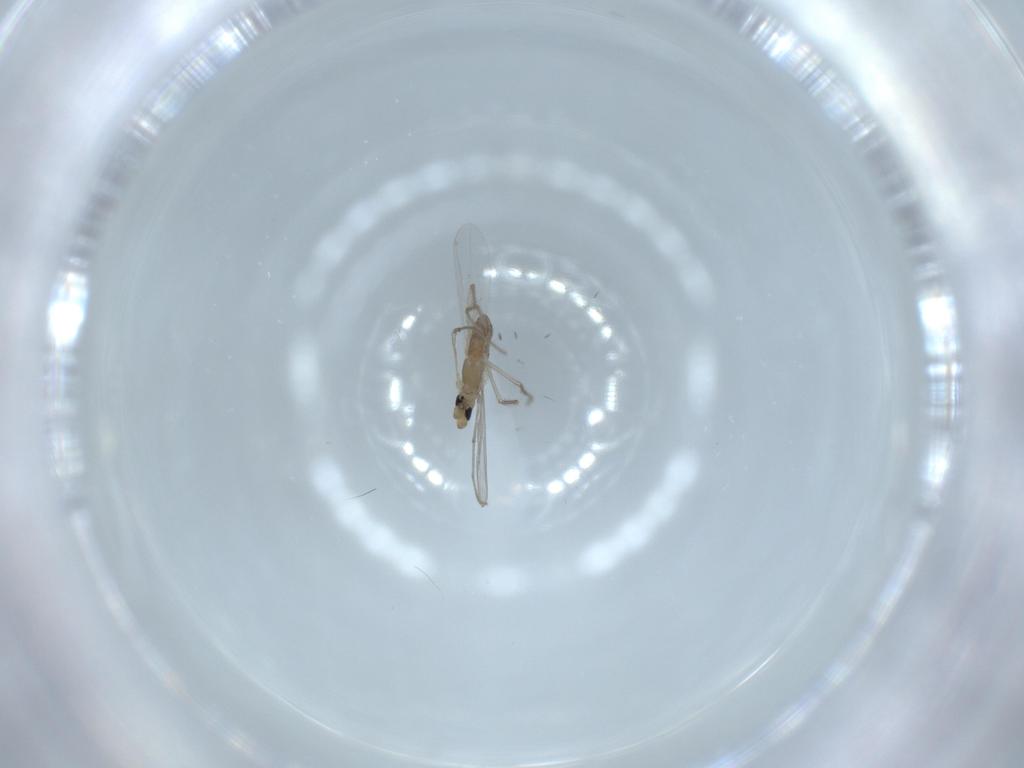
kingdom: Animalia
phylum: Arthropoda
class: Insecta
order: Diptera
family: Chironomidae
